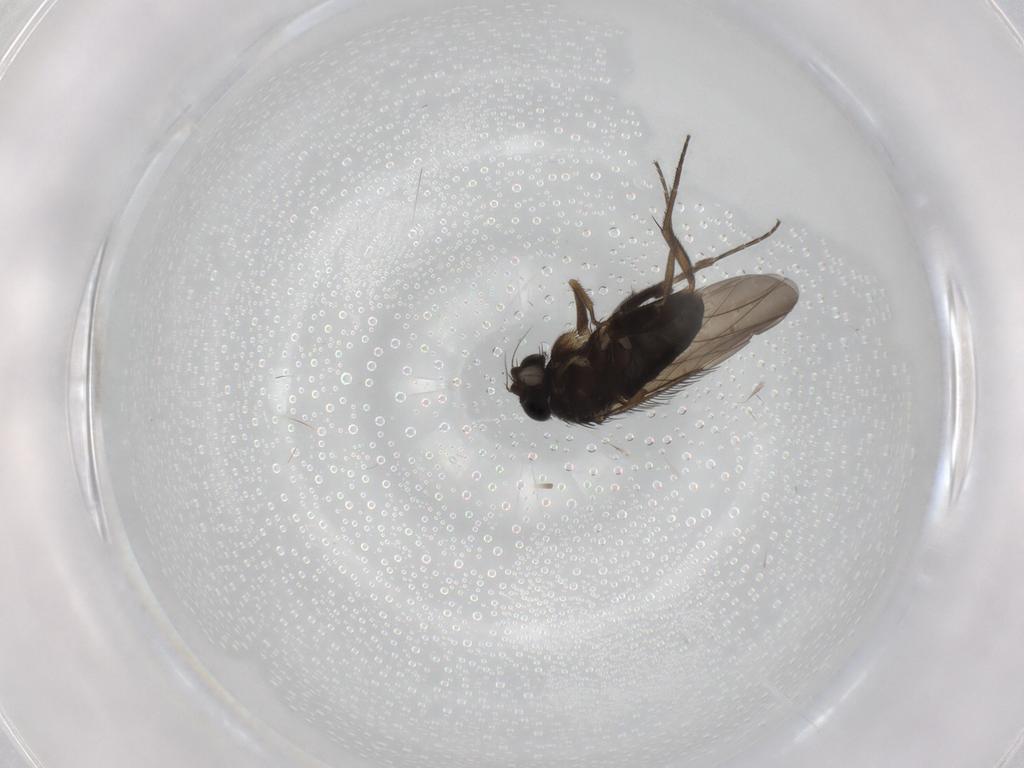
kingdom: Animalia
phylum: Arthropoda
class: Insecta
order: Diptera
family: Phoridae
